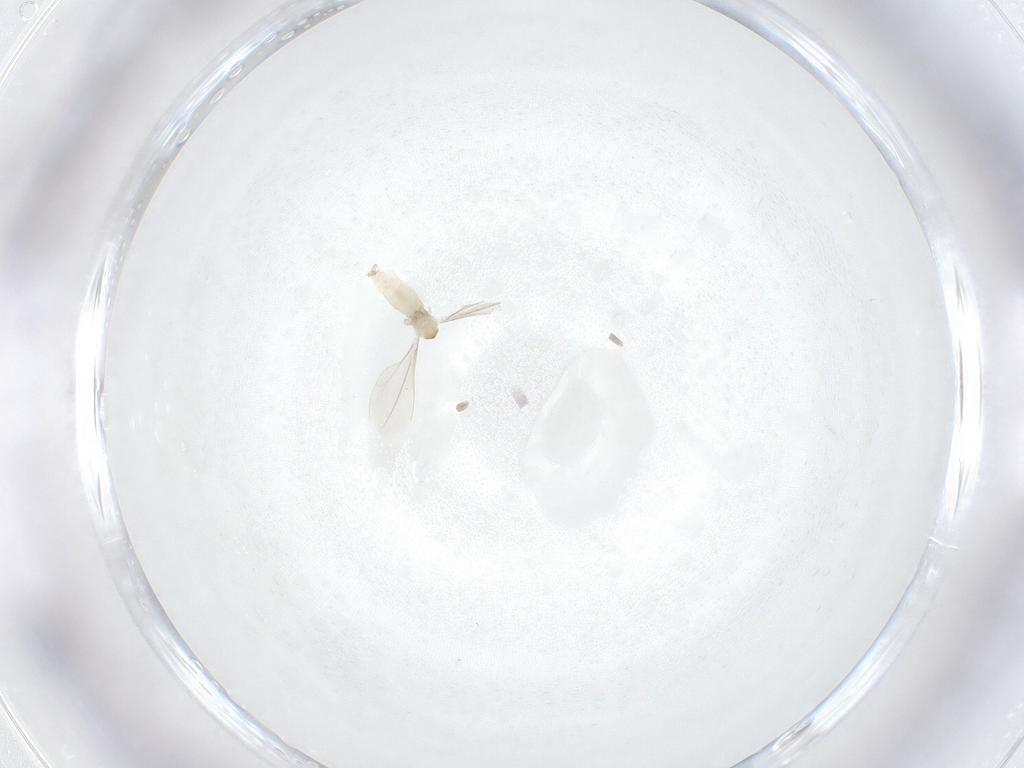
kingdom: Animalia
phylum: Arthropoda
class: Insecta
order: Diptera
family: Cecidomyiidae
